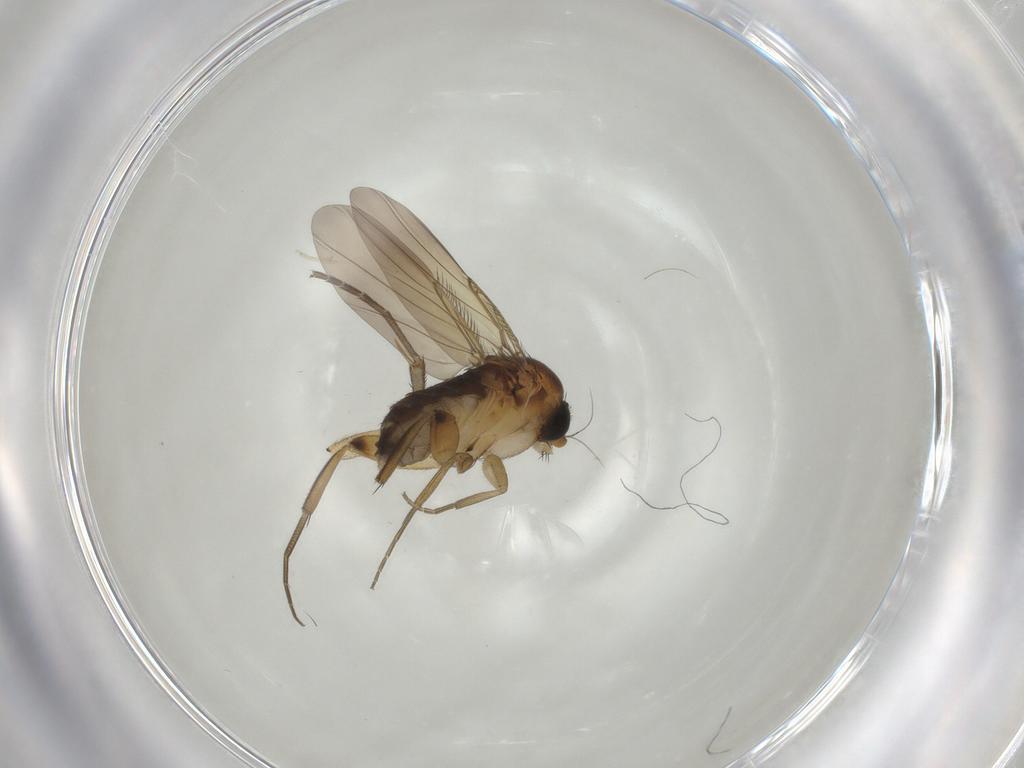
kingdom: Animalia
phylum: Arthropoda
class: Insecta
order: Diptera
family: Phoridae
